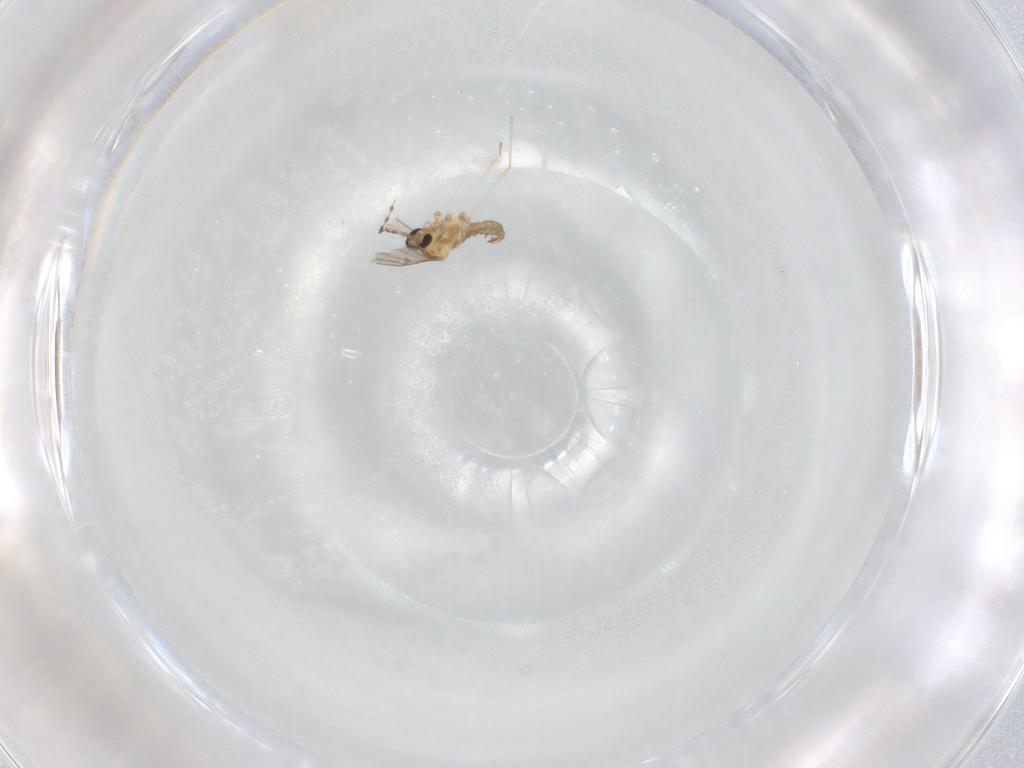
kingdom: Animalia
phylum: Arthropoda
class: Insecta
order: Diptera
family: Cecidomyiidae
